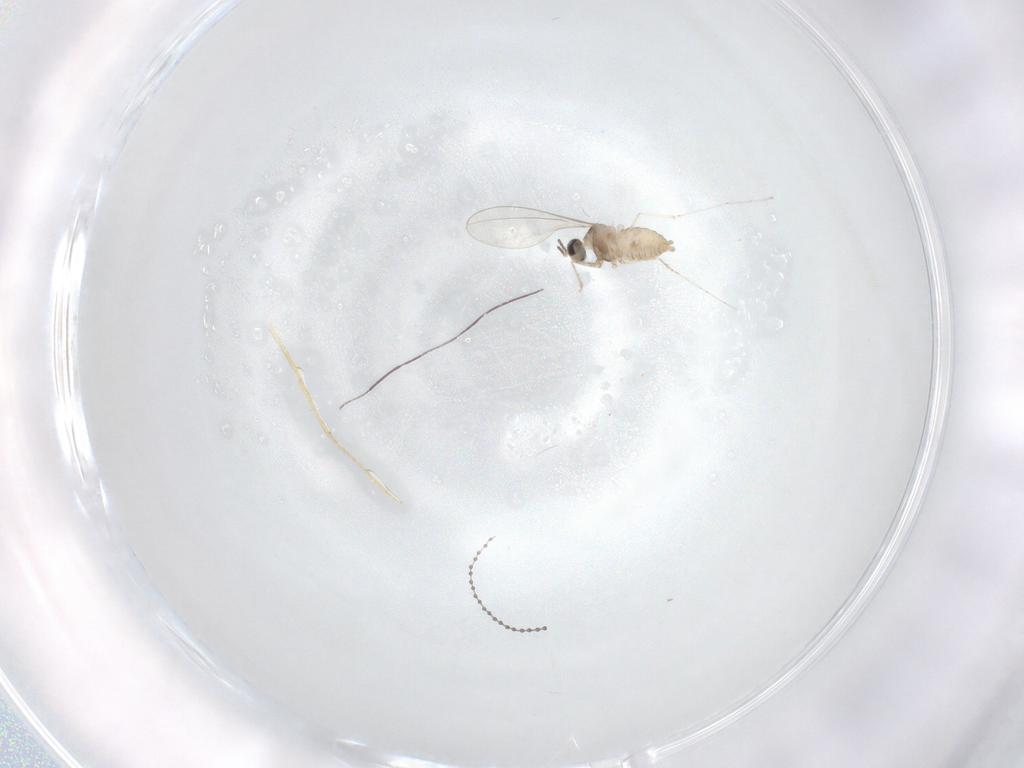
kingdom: Animalia
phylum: Arthropoda
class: Insecta
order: Diptera
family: Cecidomyiidae
